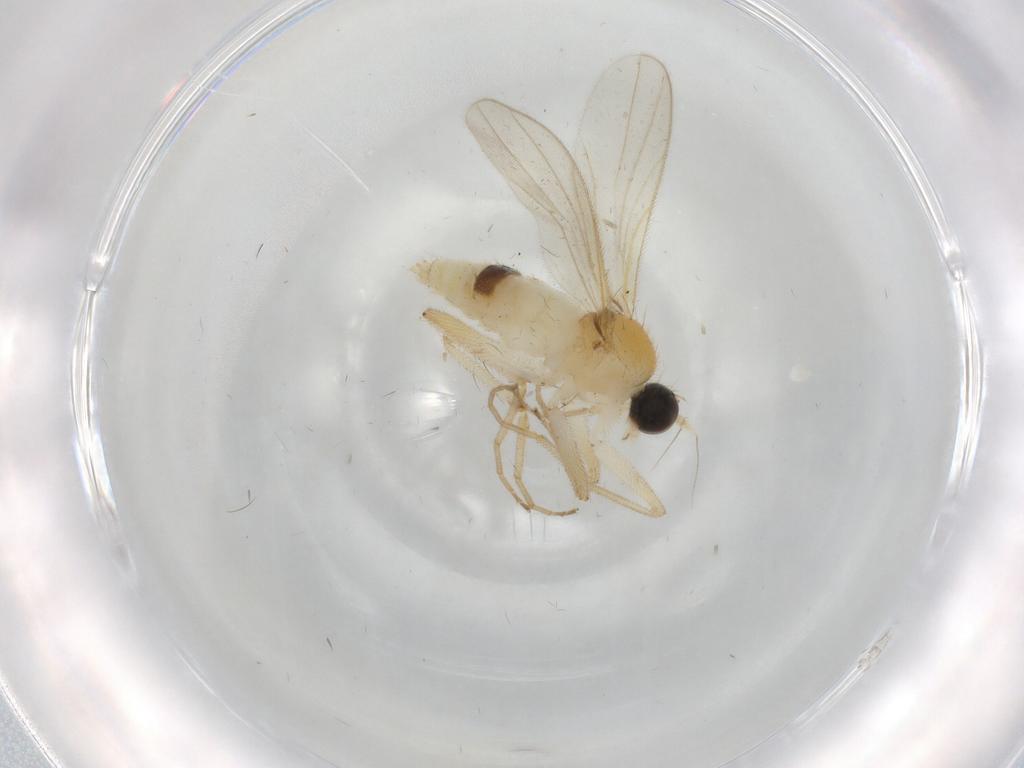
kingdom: Animalia
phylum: Arthropoda
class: Insecta
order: Diptera
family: Hybotidae
